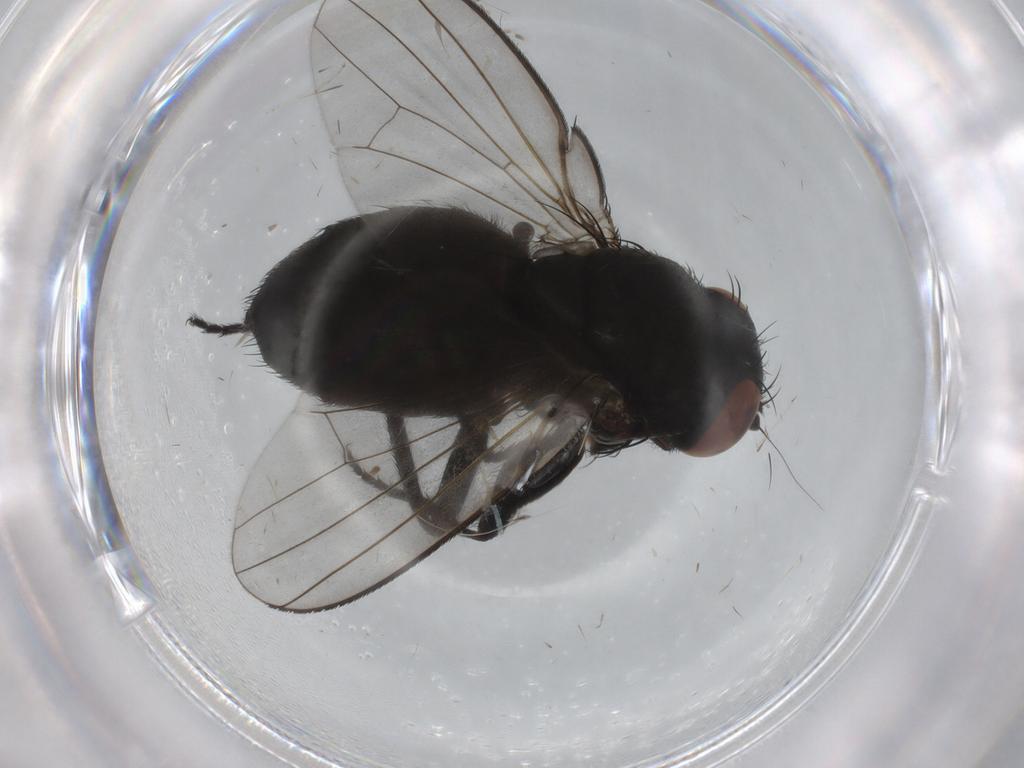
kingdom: Animalia
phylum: Arthropoda
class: Insecta
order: Diptera
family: Milichiidae
